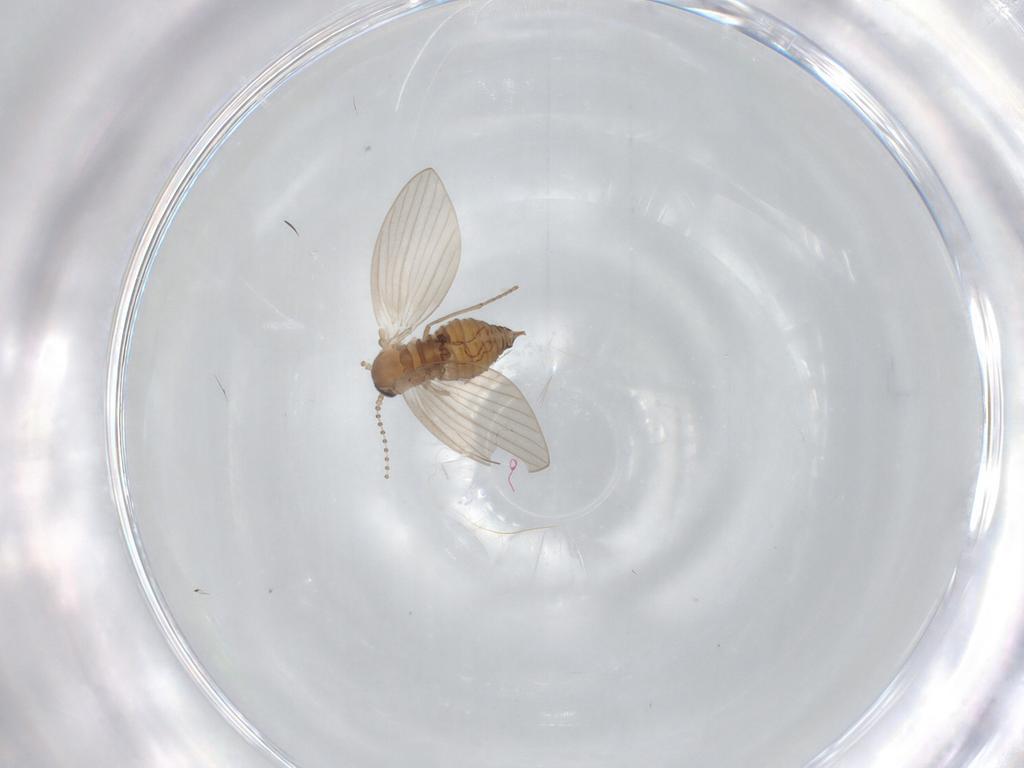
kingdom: Animalia
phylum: Arthropoda
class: Insecta
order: Diptera
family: Psychodidae
